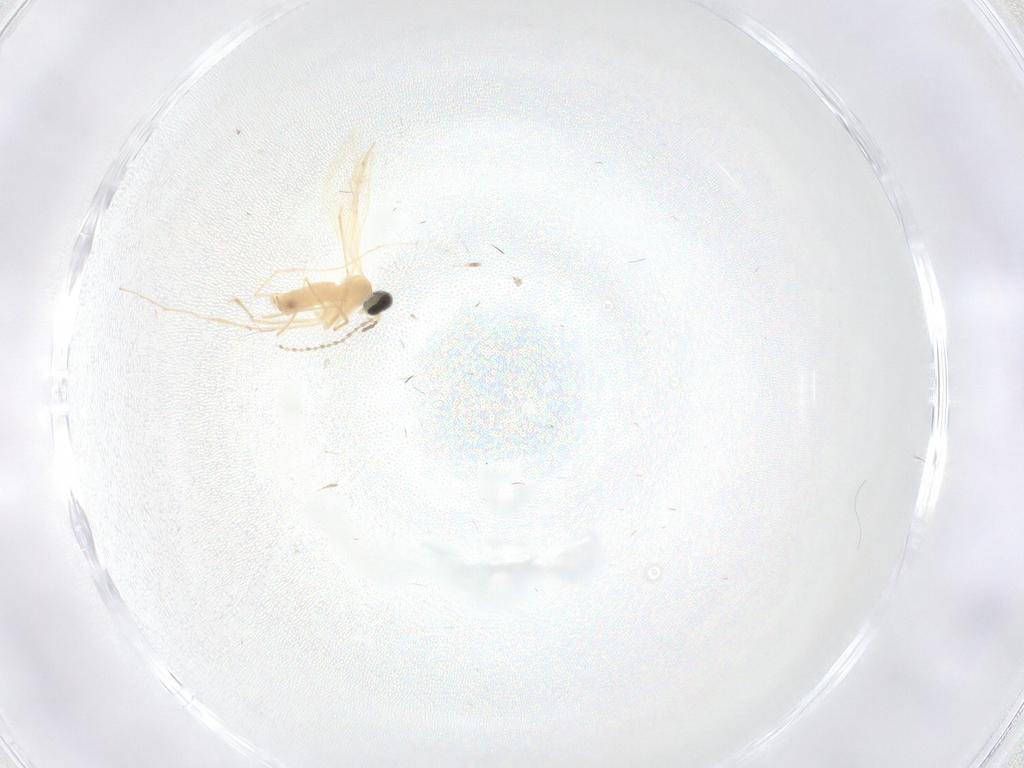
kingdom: Animalia
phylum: Arthropoda
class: Insecta
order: Diptera
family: Cecidomyiidae
